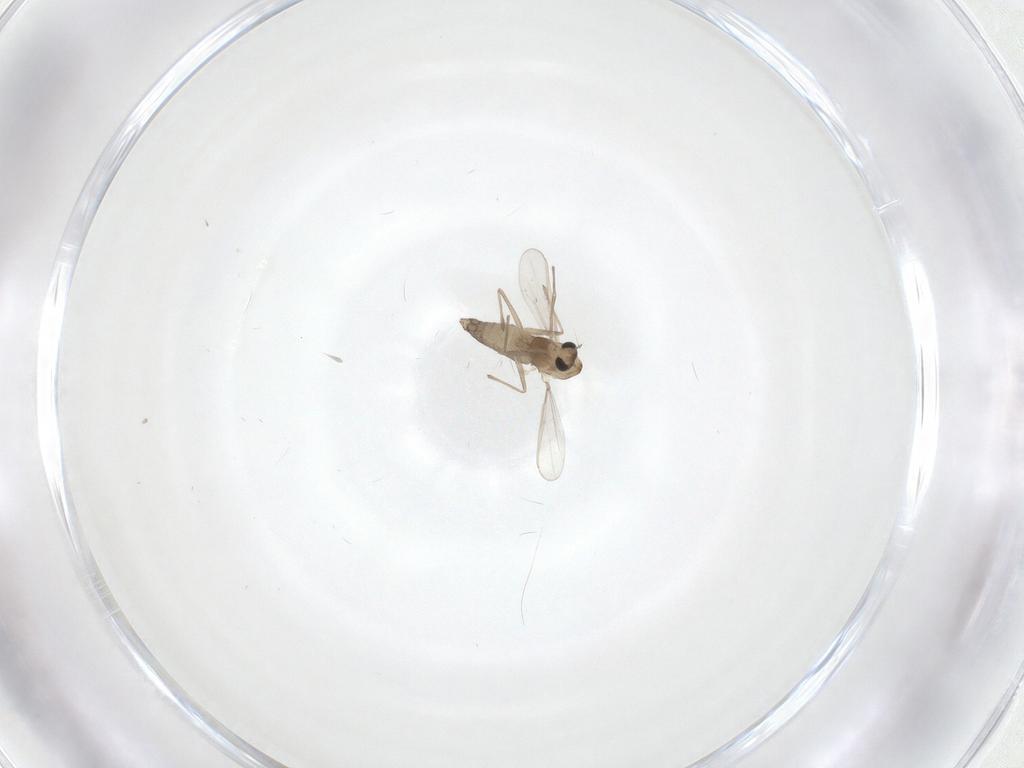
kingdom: Animalia
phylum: Arthropoda
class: Insecta
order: Diptera
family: Chironomidae
